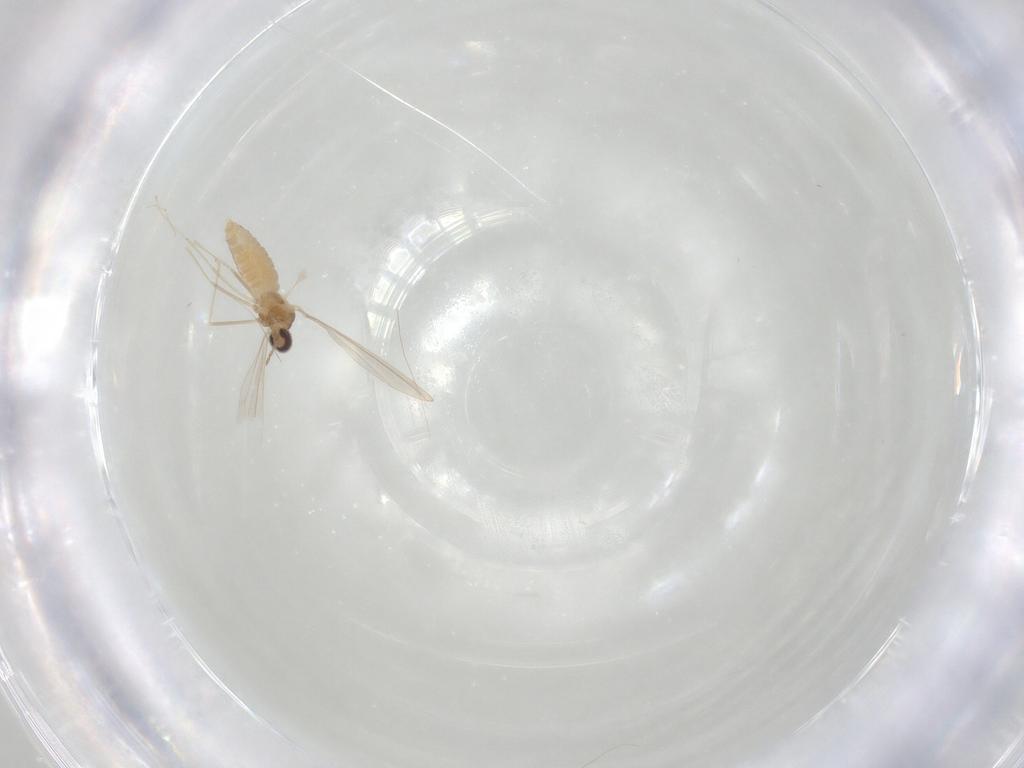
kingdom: Animalia
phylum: Arthropoda
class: Insecta
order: Diptera
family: Cecidomyiidae
